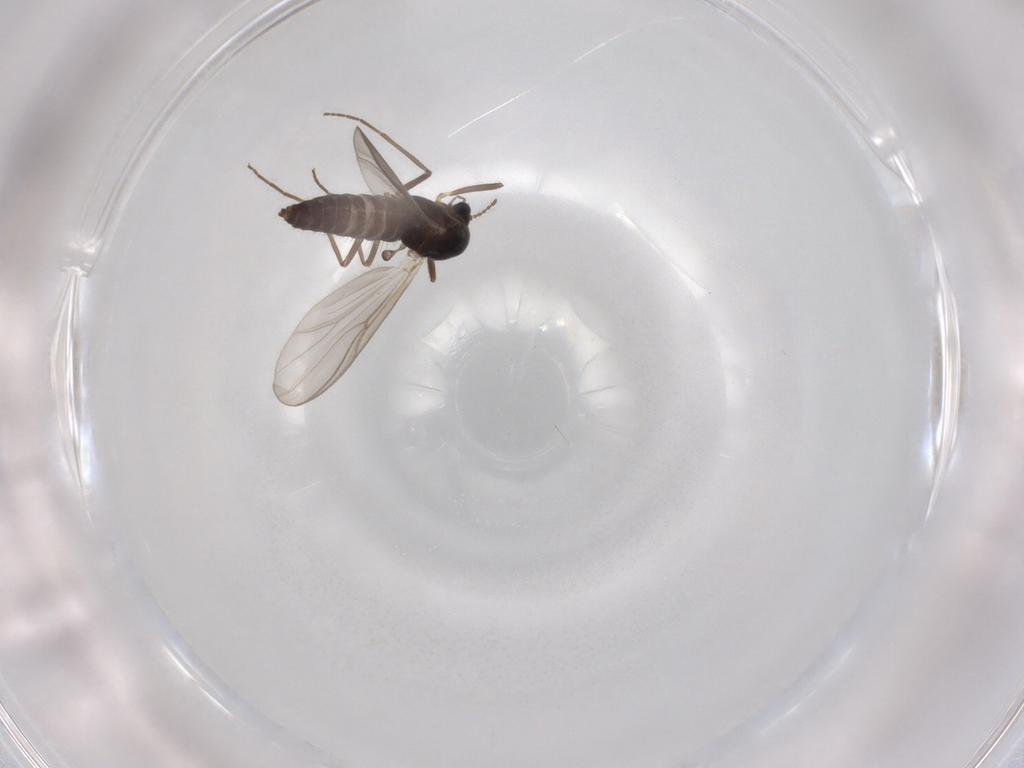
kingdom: Animalia
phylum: Arthropoda
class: Insecta
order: Diptera
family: Chironomidae
